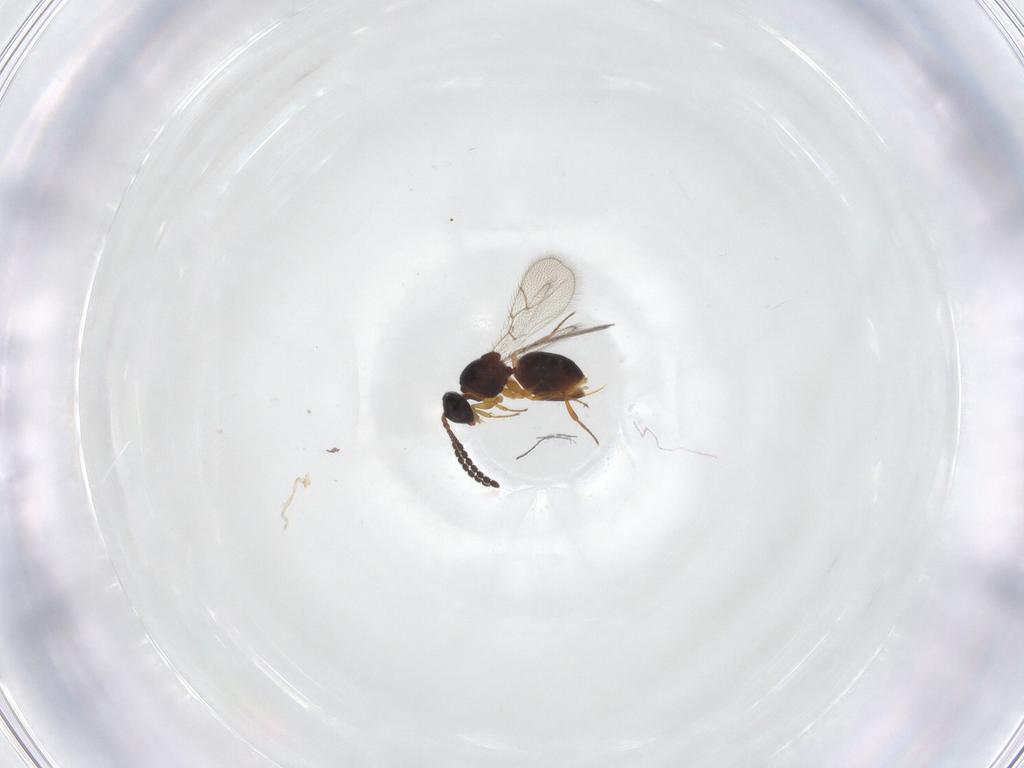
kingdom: Animalia
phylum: Arthropoda
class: Insecta
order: Hymenoptera
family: Figitidae
